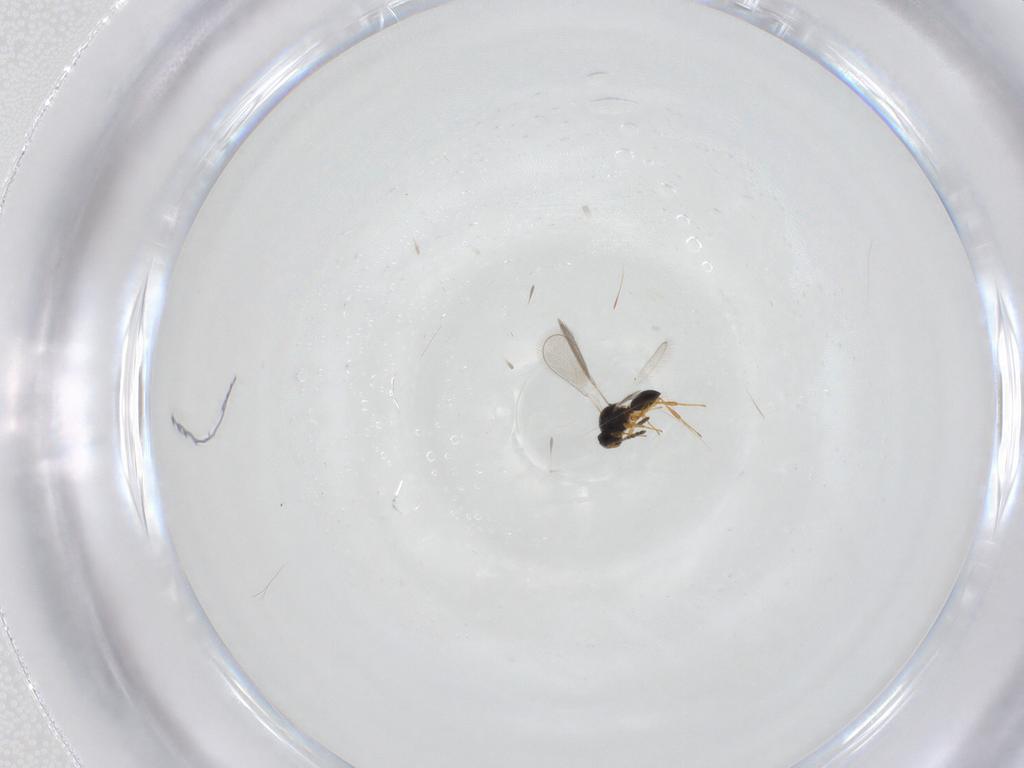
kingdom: Animalia
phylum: Arthropoda
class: Insecta
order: Hymenoptera
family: Platygastridae
